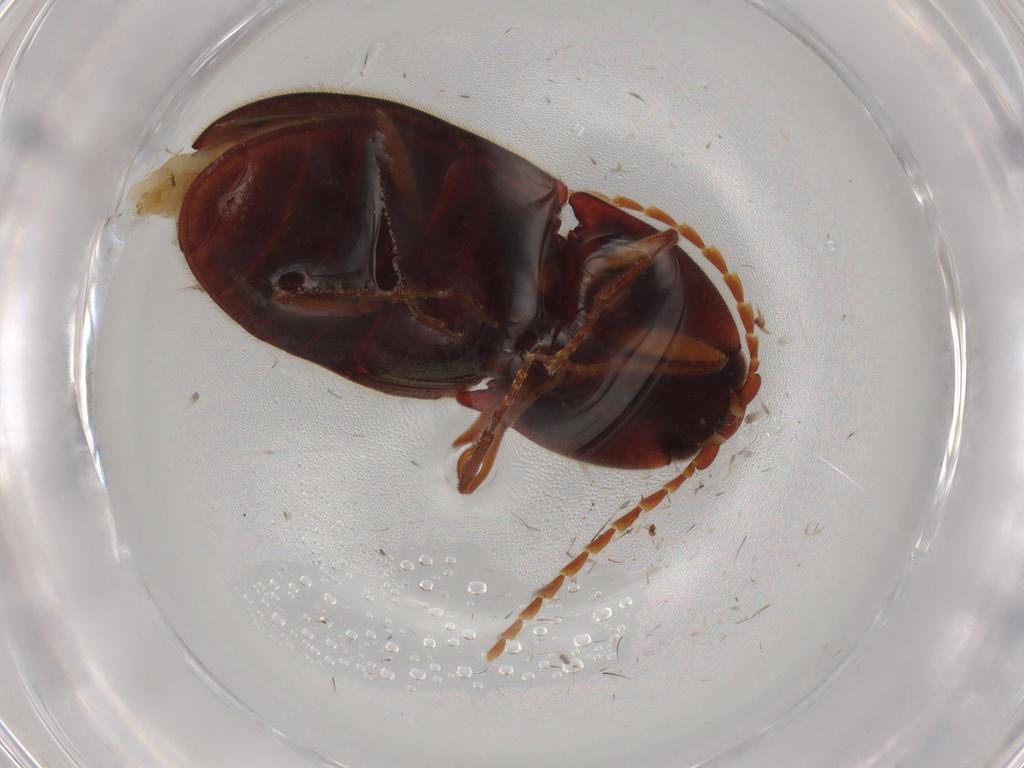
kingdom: Animalia
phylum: Arthropoda
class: Insecta
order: Coleoptera
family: Elateridae
